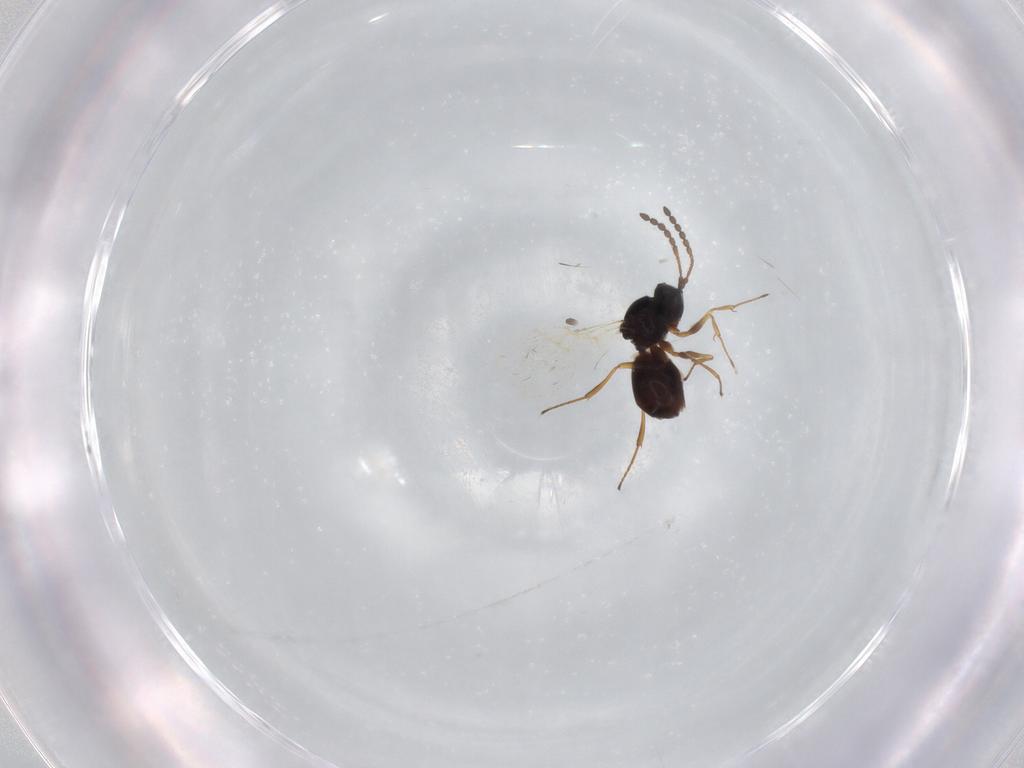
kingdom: Animalia
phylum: Arthropoda
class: Insecta
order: Hymenoptera
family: Figitidae
